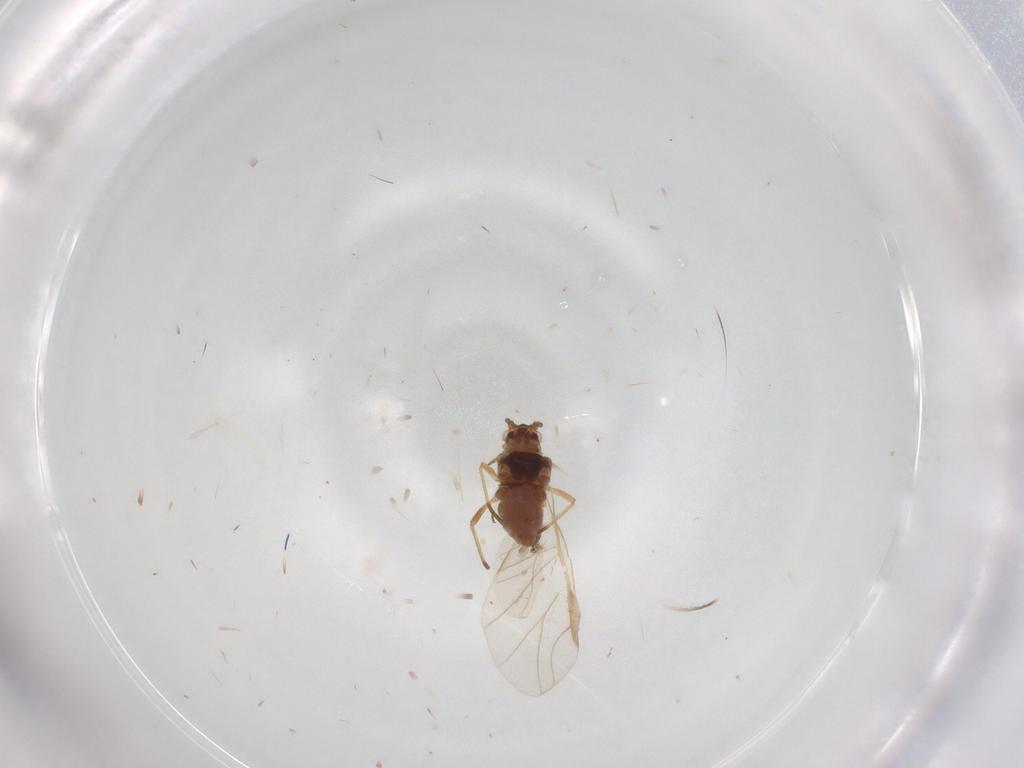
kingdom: Animalia
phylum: Arthropoda
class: Insecta
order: Hemiptera
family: Aphididae
